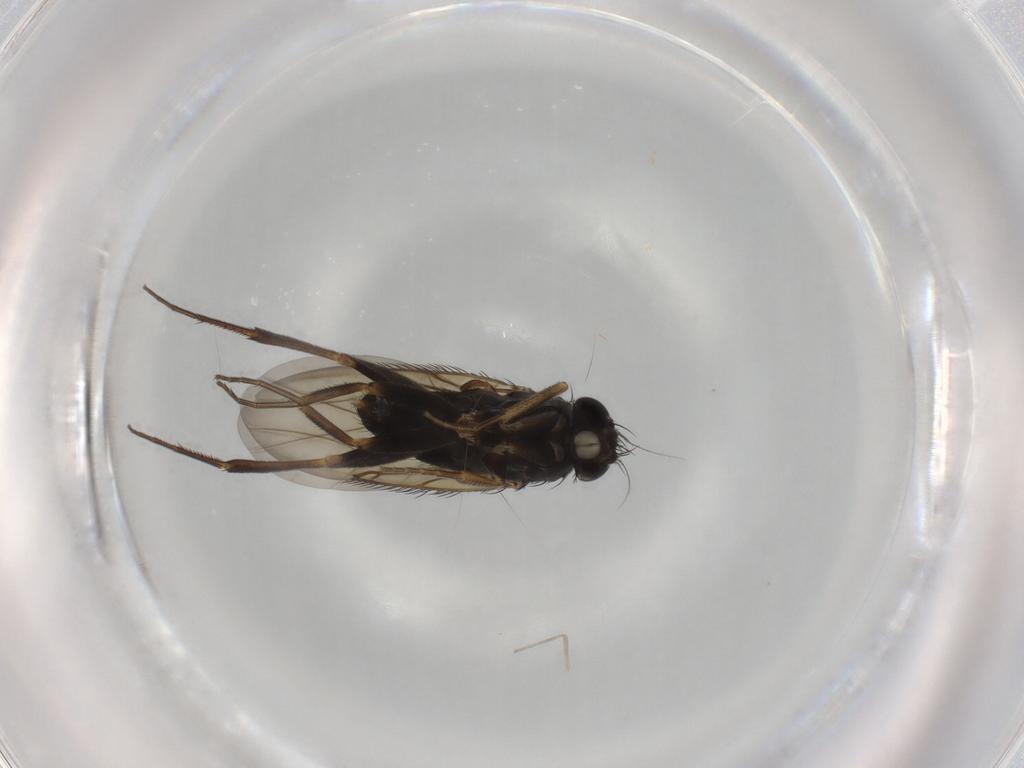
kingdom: Animalia
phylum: Arthropoda
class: Insecta
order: Diptera
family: Phoridae
